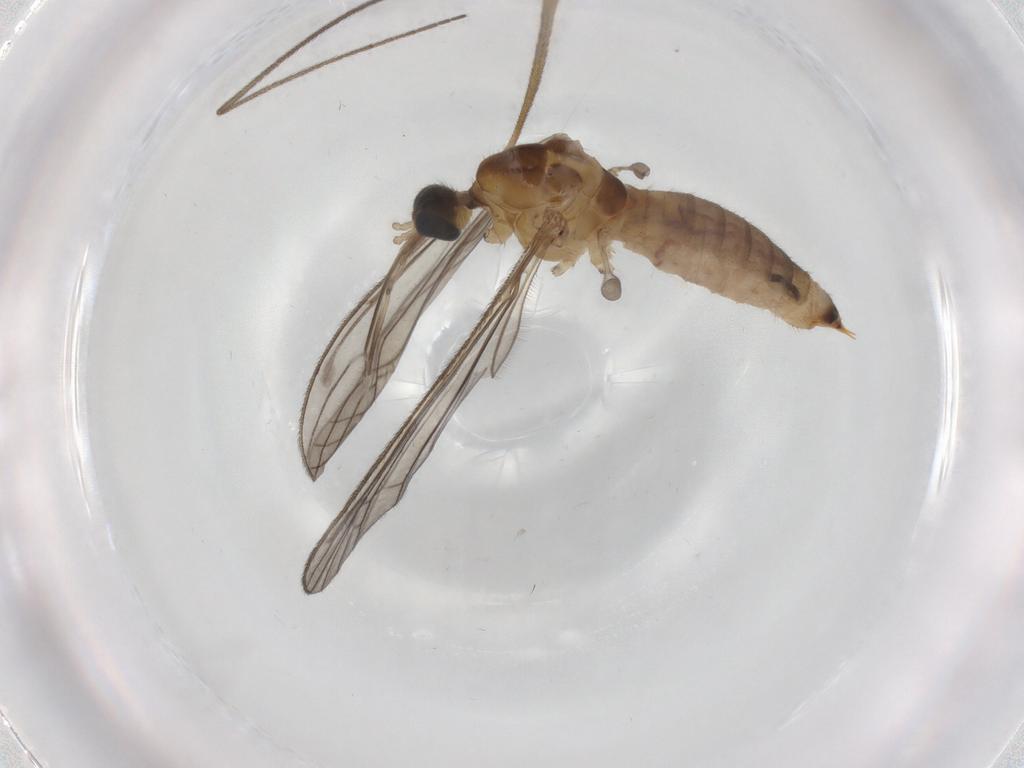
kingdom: Animalia
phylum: Arthropoda
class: Insecta
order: Diptera
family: Limoniidae
